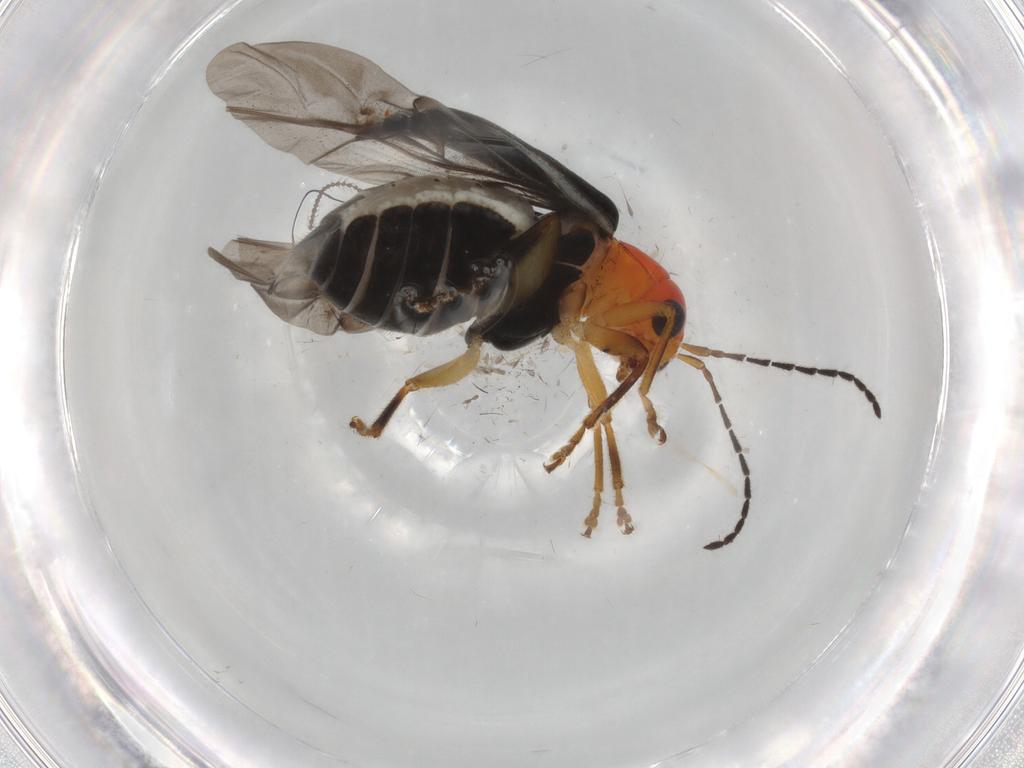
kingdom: Animalia
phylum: Arthropoda
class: Insecta
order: Coleoptera
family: Chrysomelidae
